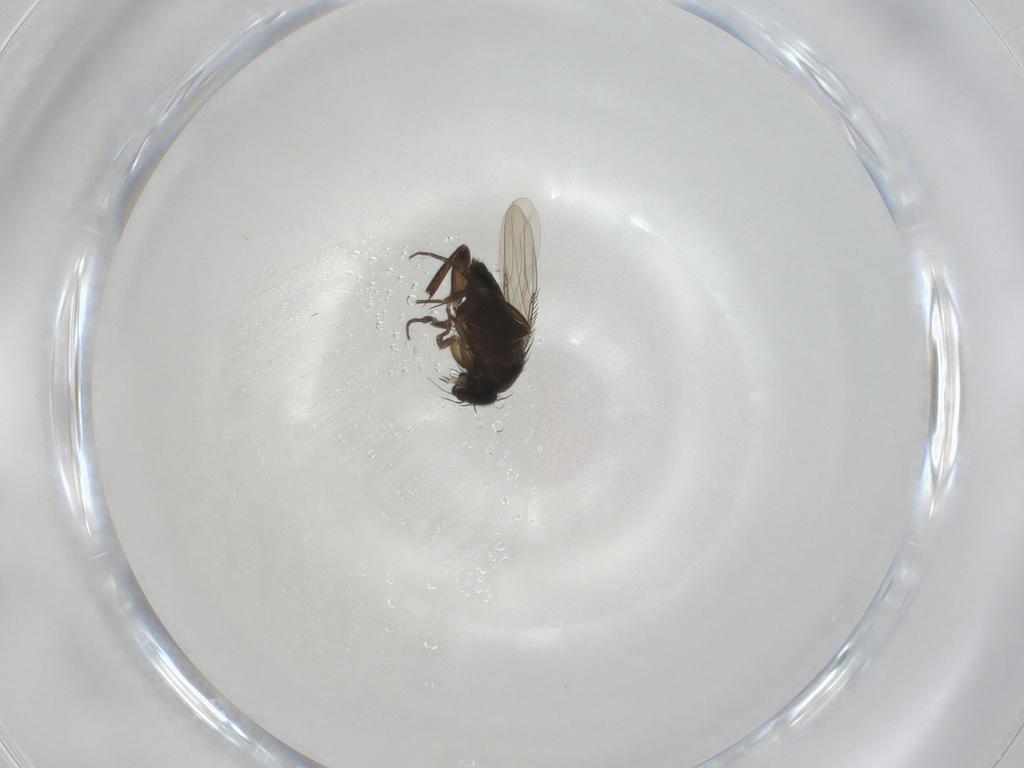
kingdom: Animalia
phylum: Arthropoda
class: Insecta
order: Diptera
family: Phoridae
